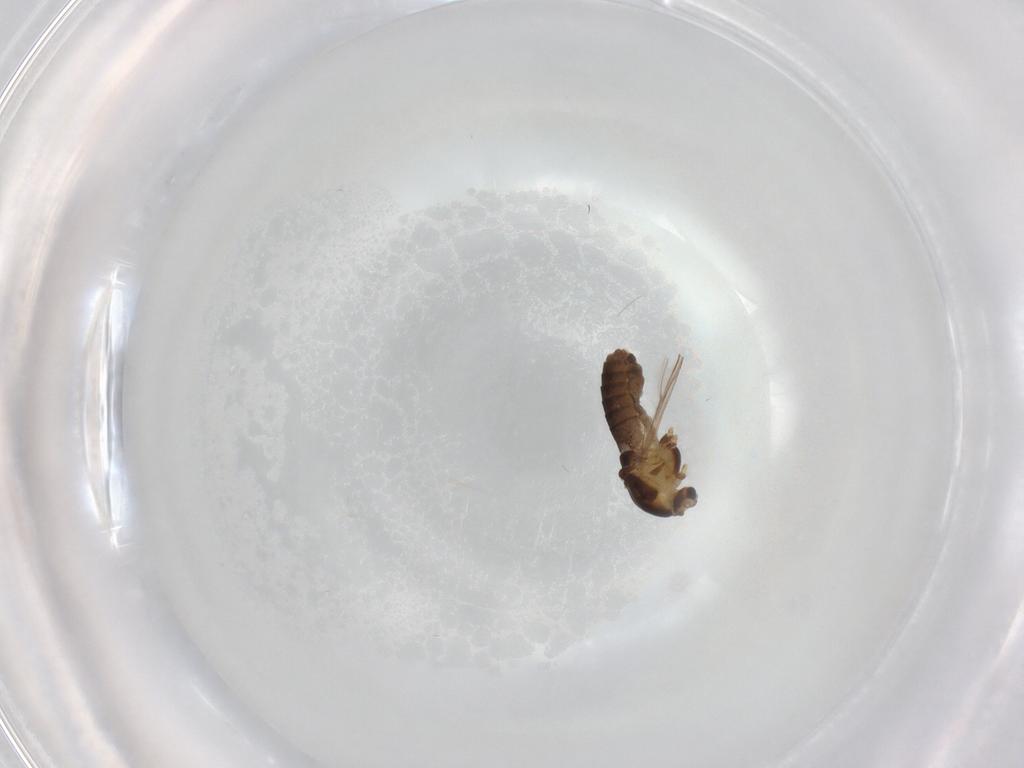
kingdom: Animalia
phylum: Arthropoda
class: Insecta
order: Diptera
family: Chironomidae
